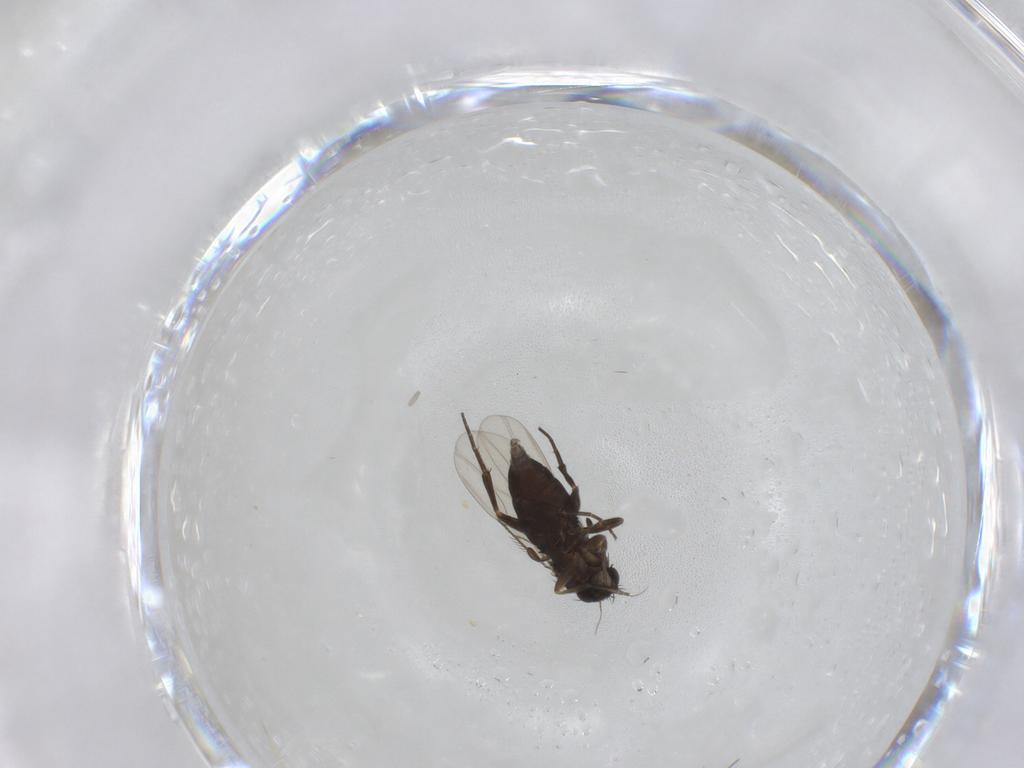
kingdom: Animalia
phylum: Arthropoda
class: Insecta
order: Diptera
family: Phoridae
